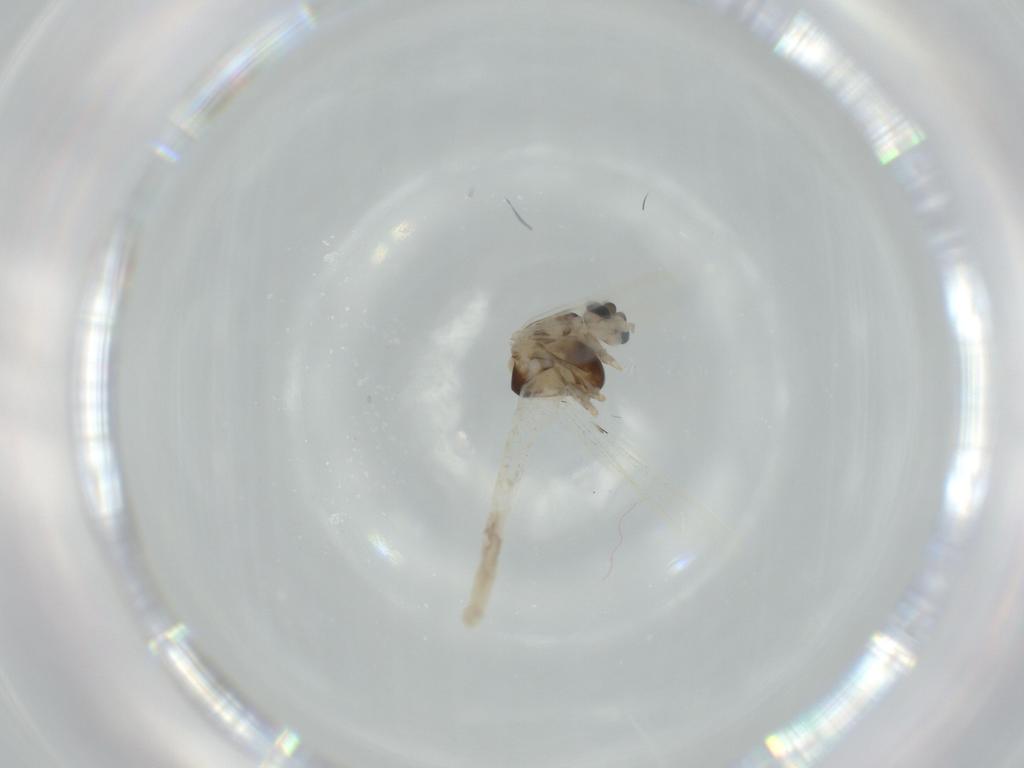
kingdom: Animalia
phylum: Arthropoda
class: Insecta
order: Diptera
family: Chironomidae
